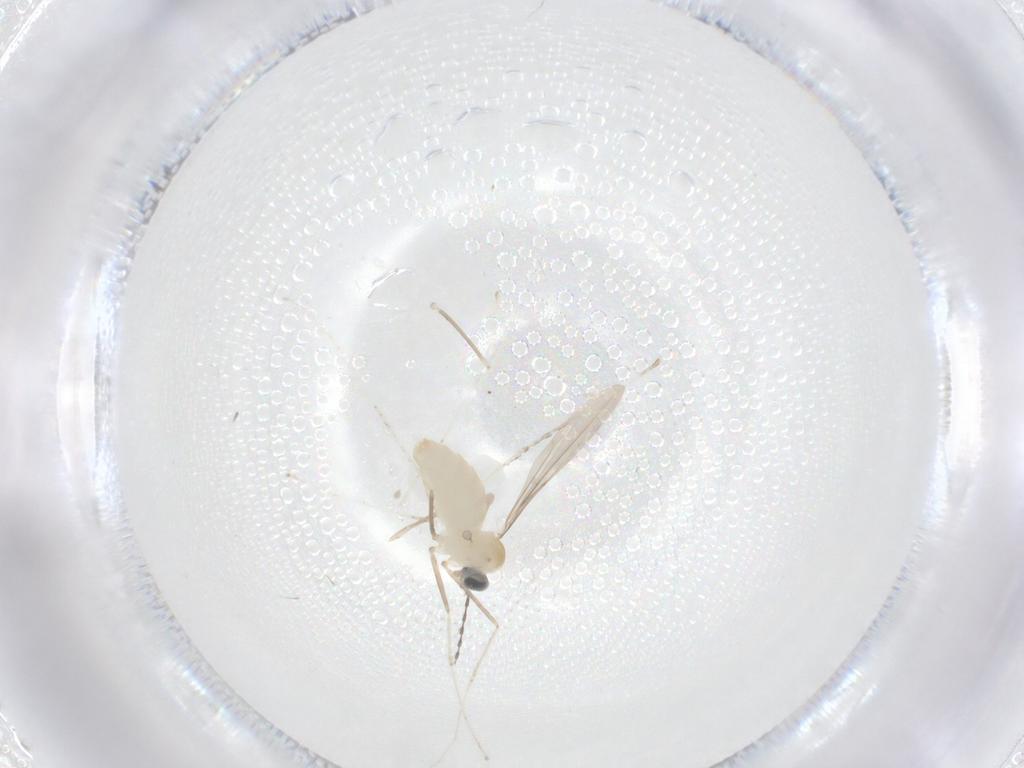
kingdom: Animalia
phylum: Arthropoda
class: Insecta
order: Diptera
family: Cecidomyiidae
